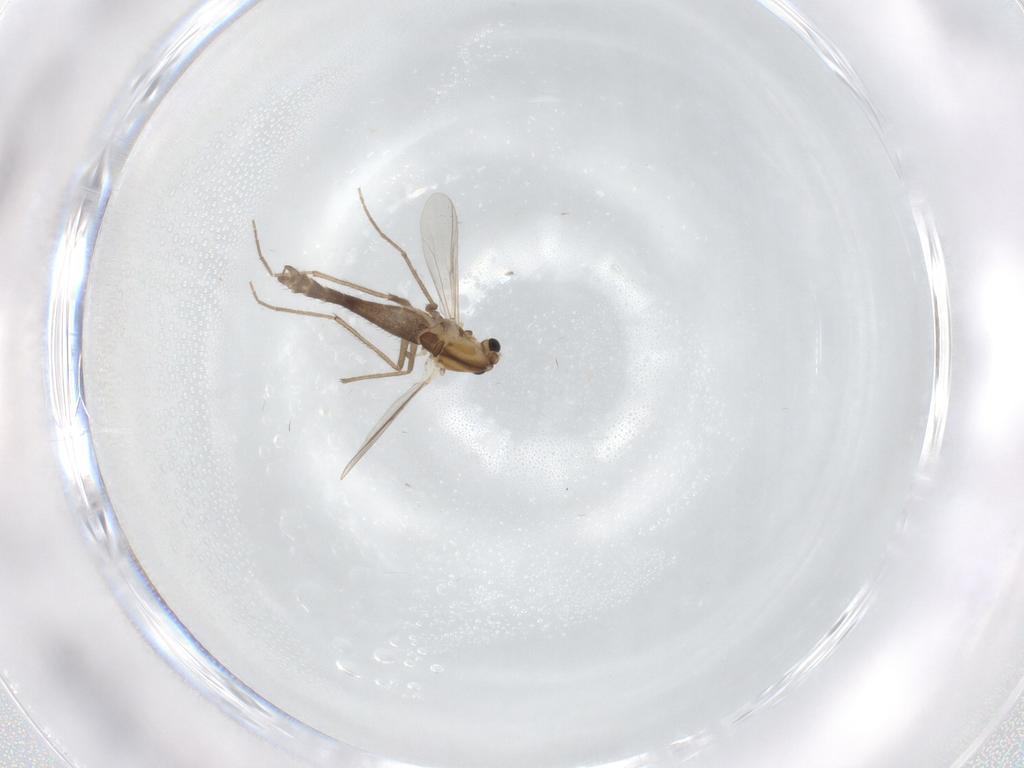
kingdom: Animalia
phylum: Arthropoda
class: Insecta
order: Diptera
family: Chironomidae
